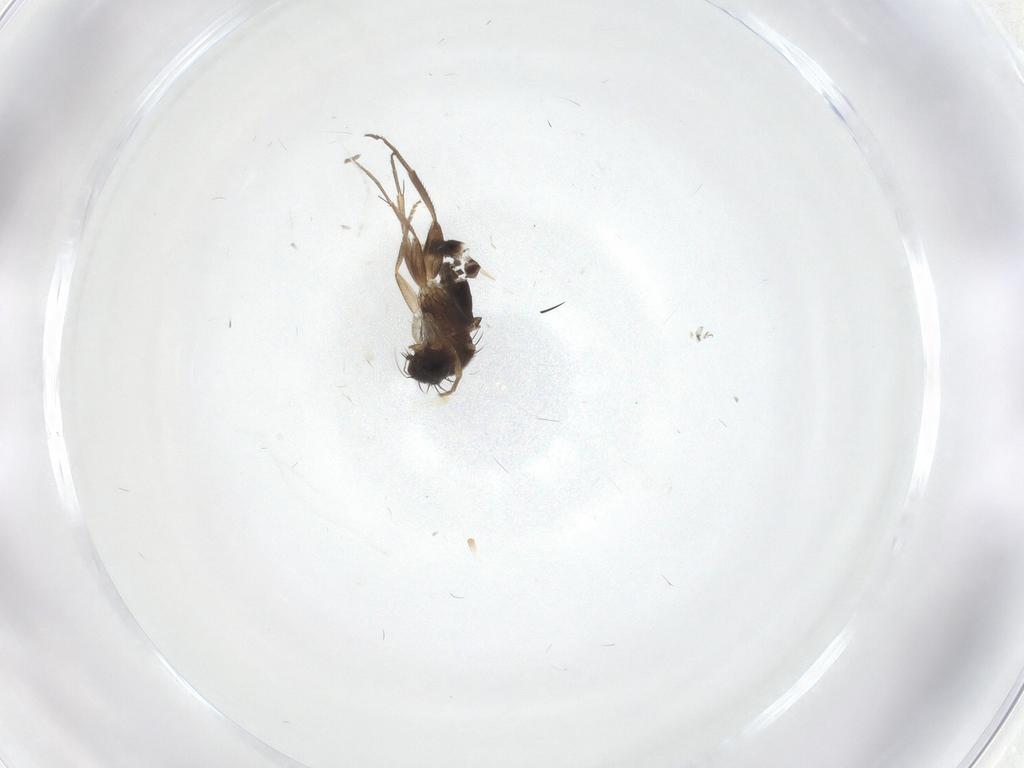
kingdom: Animalia
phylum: Arthropoda
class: Insecta
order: Diptera
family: Phoridae
